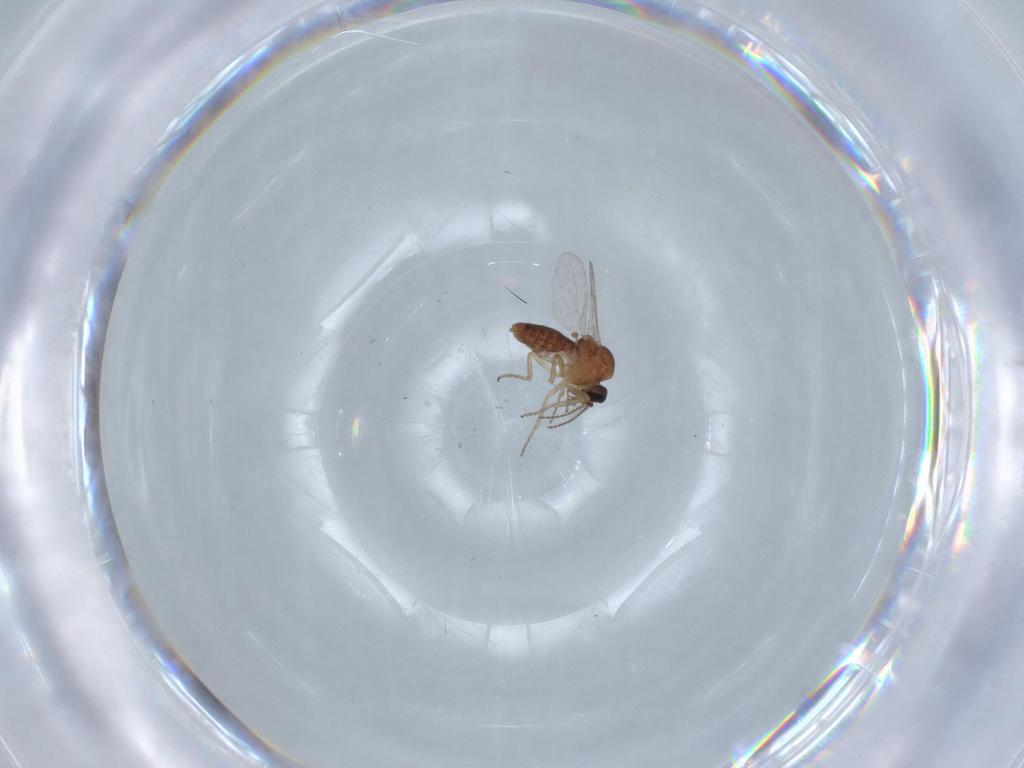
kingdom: Animalia
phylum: Arthropoda
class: Insecta
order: Diptera
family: Ceratopogonidae
